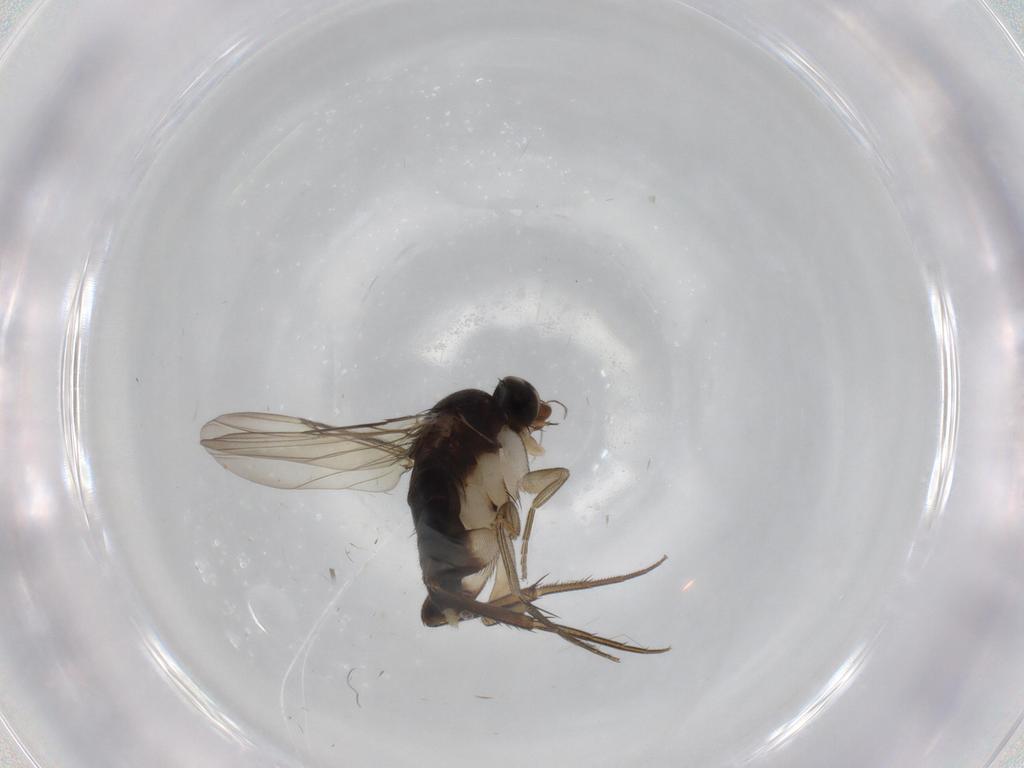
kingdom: Animalia
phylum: Arthropoda
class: Insecta
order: Diptera
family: Phoridae
